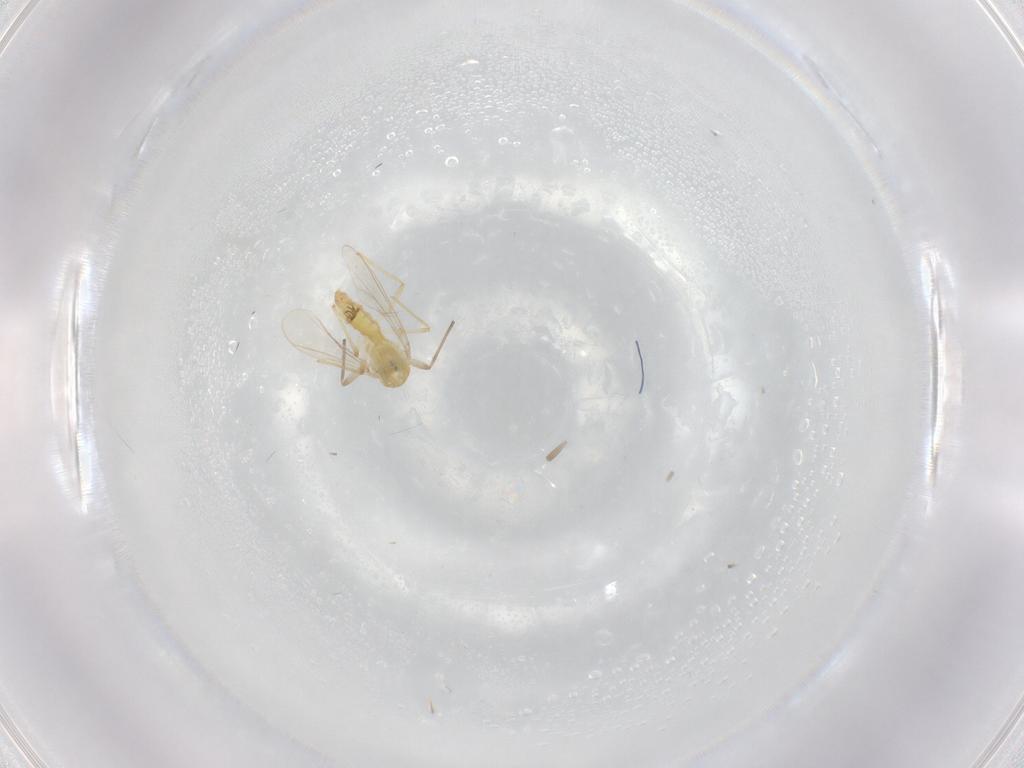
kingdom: Animalia
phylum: Arthropoda
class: Insecta
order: Diptera
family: Chironomidae
